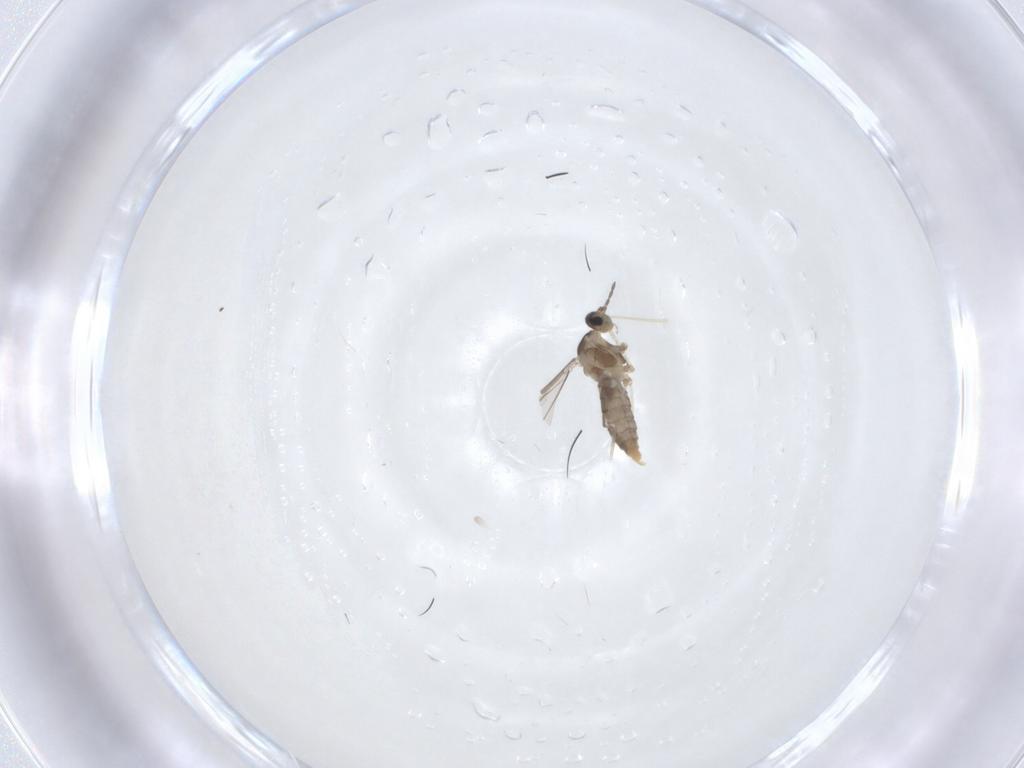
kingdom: Animalia
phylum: Arthropoda
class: Insecta
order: Diptera
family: Cecidomyiidae
